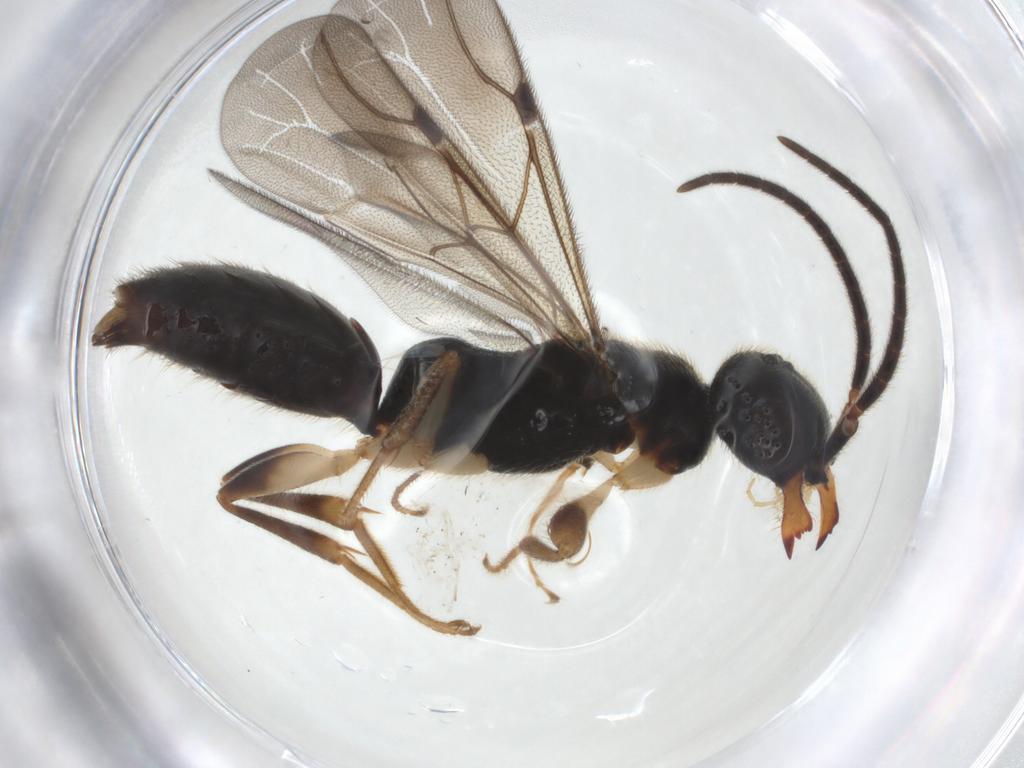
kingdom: Animalia
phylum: Arthropoda
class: Insecta
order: Hymenoptera
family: Bethylidae
